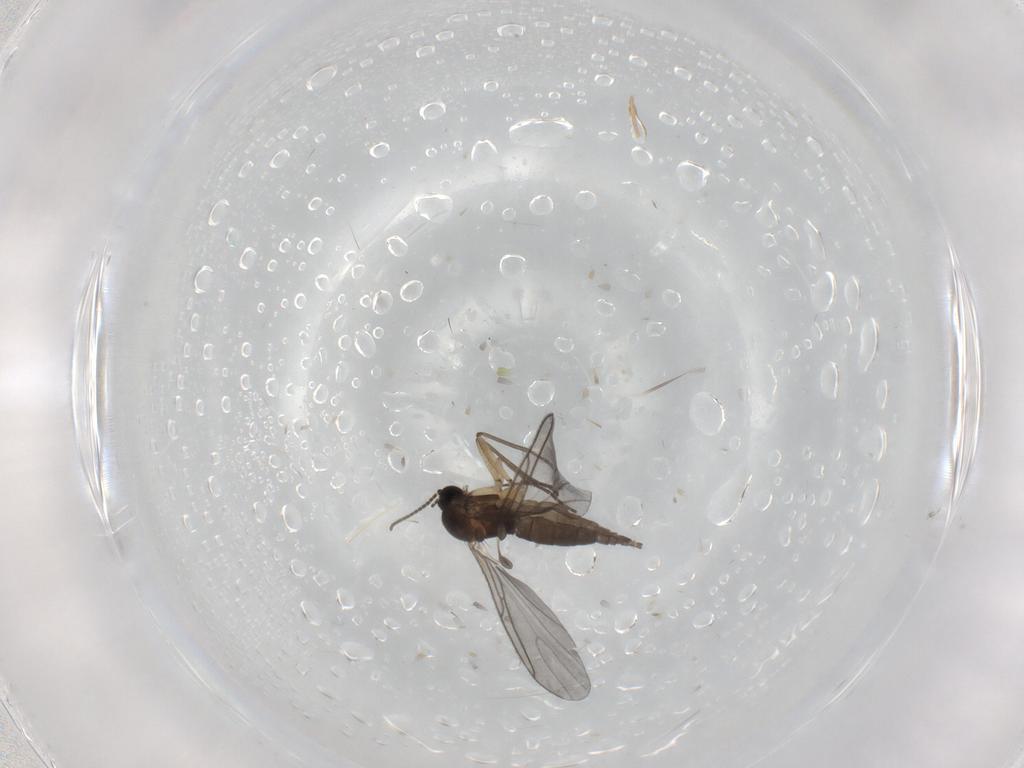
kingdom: Animalia
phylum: Arthropoda
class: Insecta
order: Diptera
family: Sciaridae
